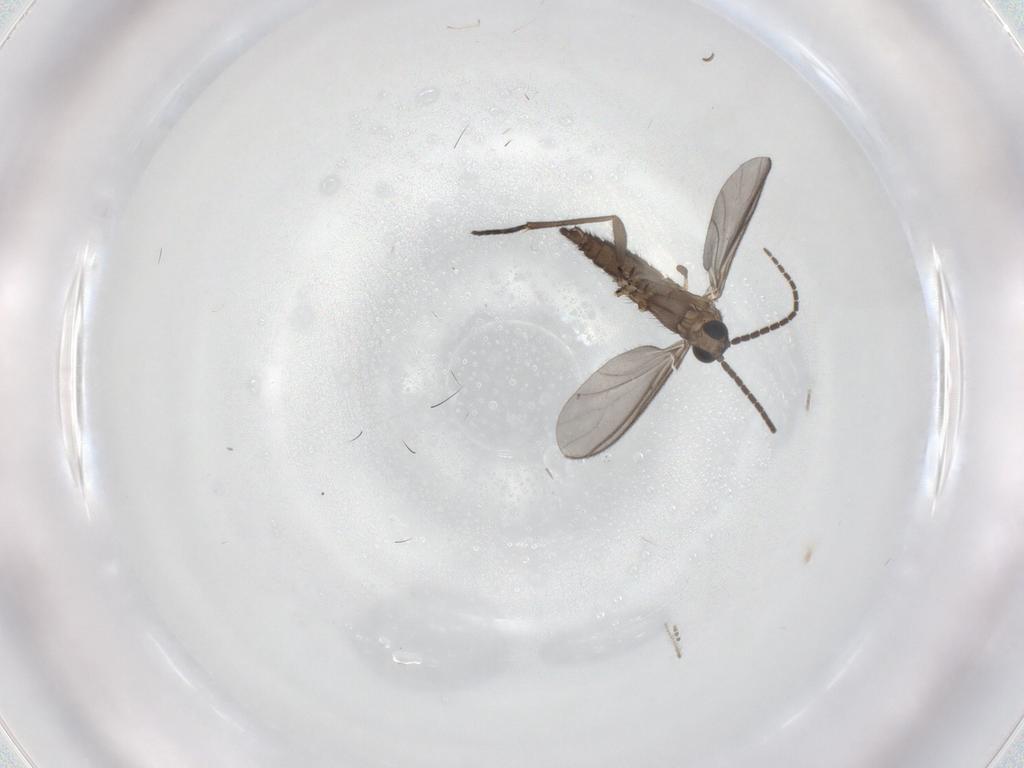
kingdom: Animalia
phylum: Arthropoda
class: Insecta
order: Diptera
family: Sciaridae
